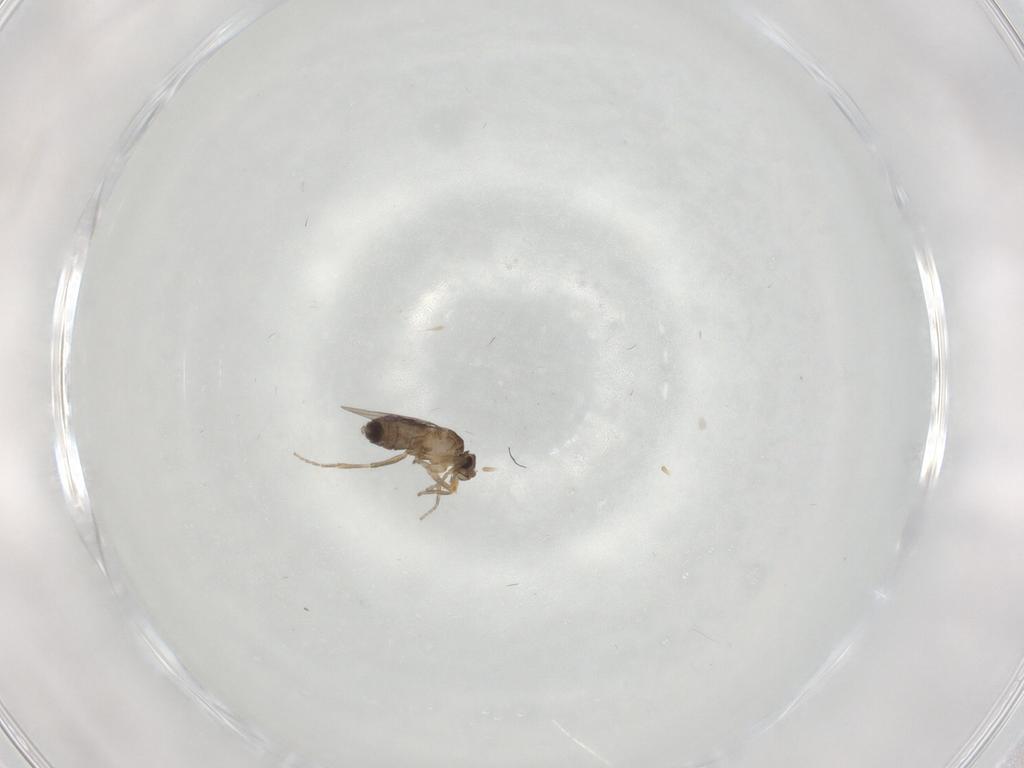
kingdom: Animalia
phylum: Arthropoda
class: Insecta
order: Diptera
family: Phoridae
